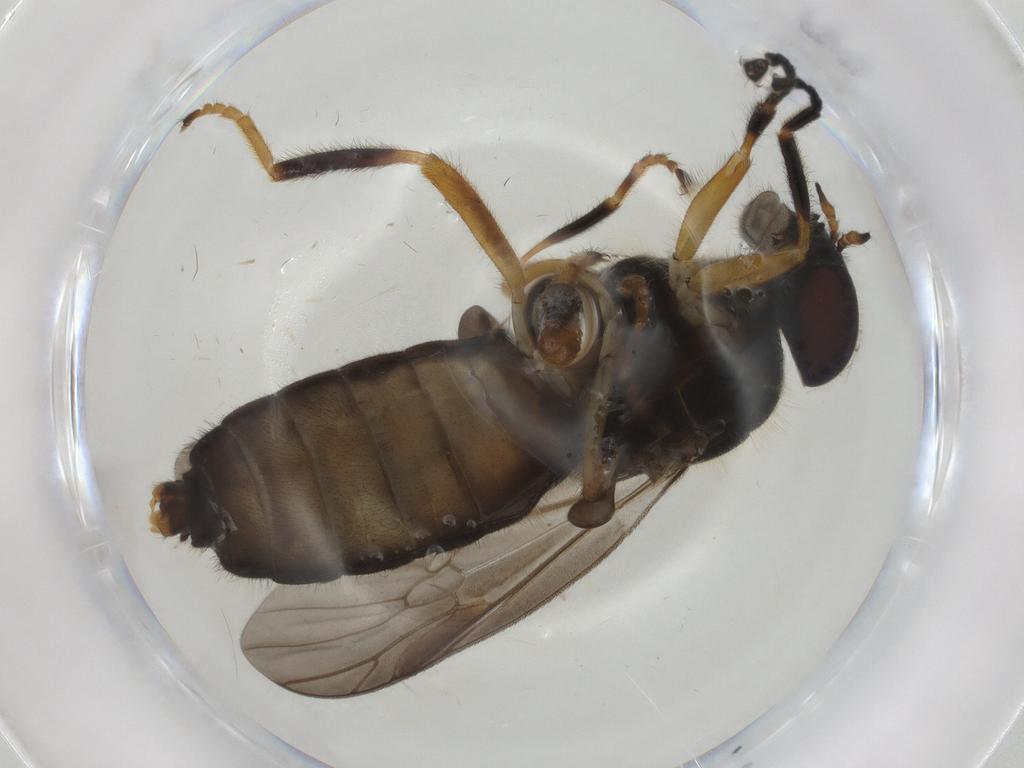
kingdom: Animalia
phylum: Arthropoda
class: Insecta
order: Diptera
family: Stratiomyidae
